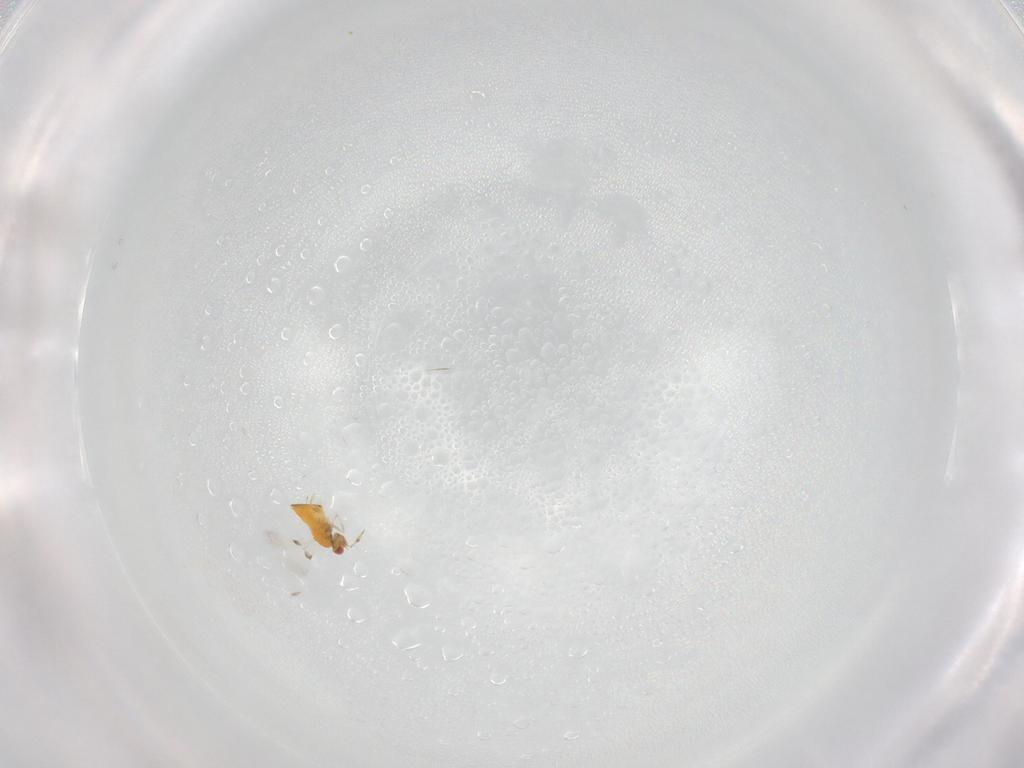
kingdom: Animalia
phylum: Arthropoda
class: Insecta
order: Hymenoptera
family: Trichogrammatidae
